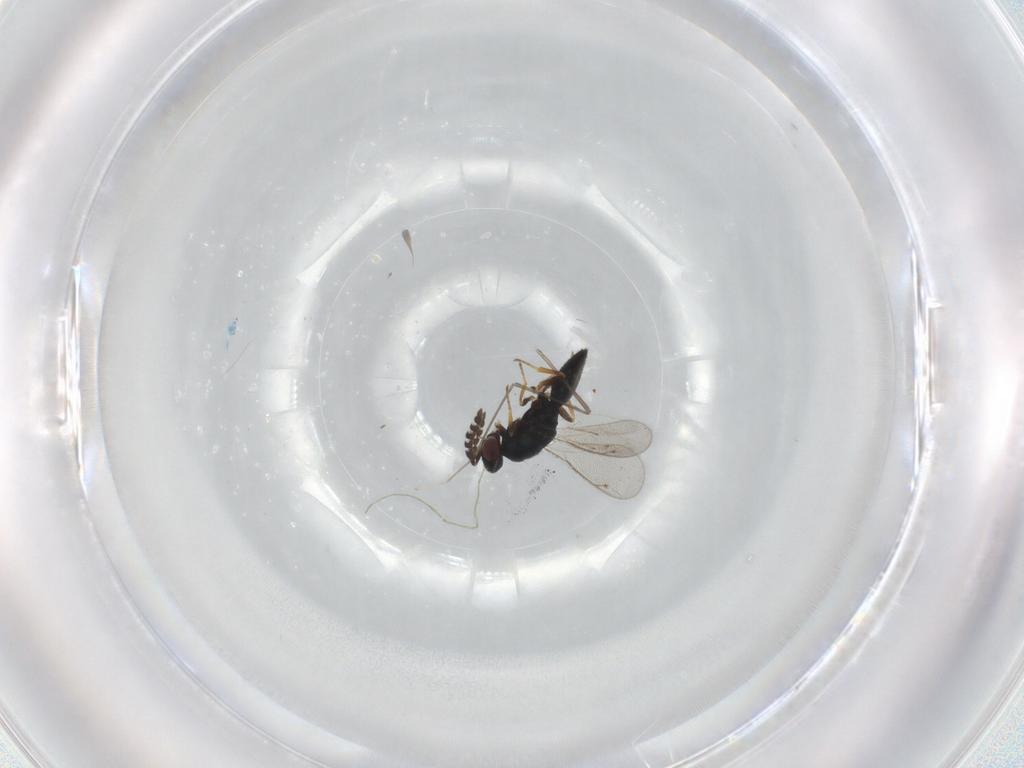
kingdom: Animalia
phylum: Arthropoda
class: Insecta
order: Hymenoptera
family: Eulophidae
